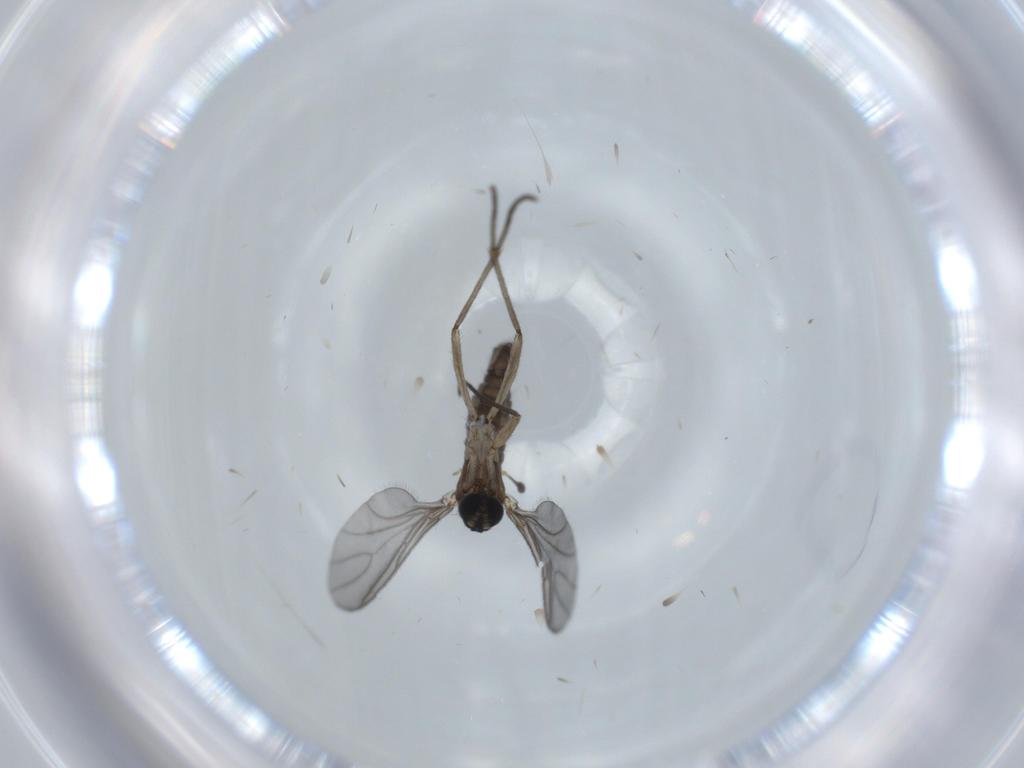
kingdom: Animalia
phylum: Arthropoda
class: Insecta
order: Diptera
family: Sciaridae
